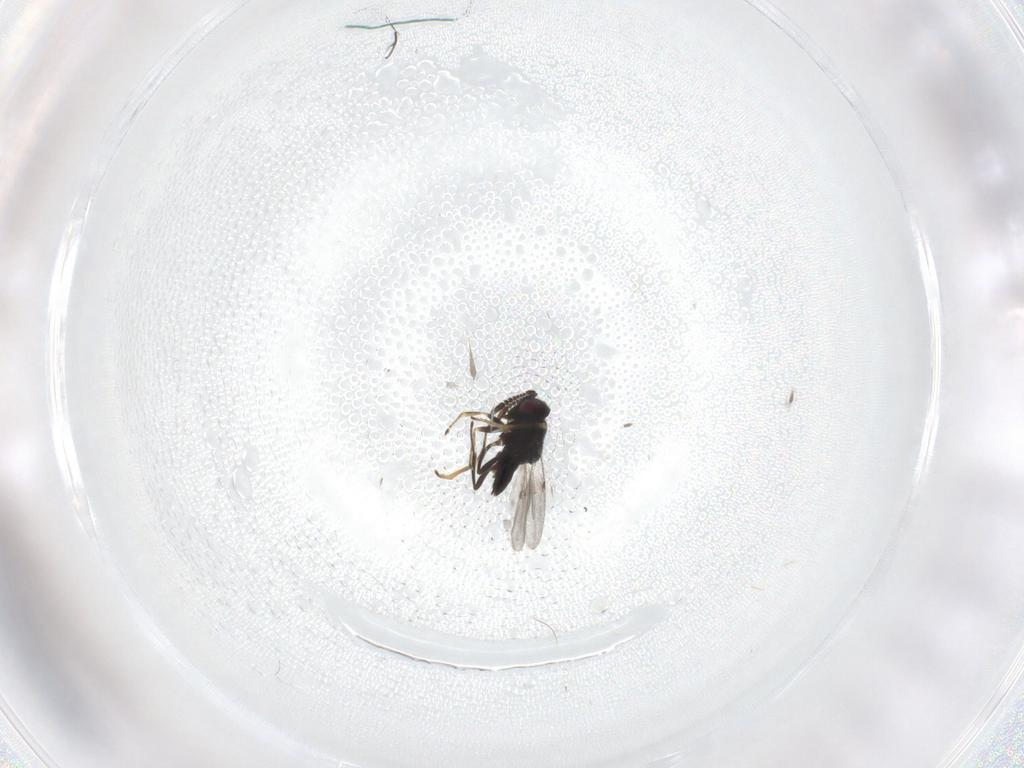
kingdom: Animalia
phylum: Arthropoda
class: Insecta
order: Hymenoptera
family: Encyrtidae
